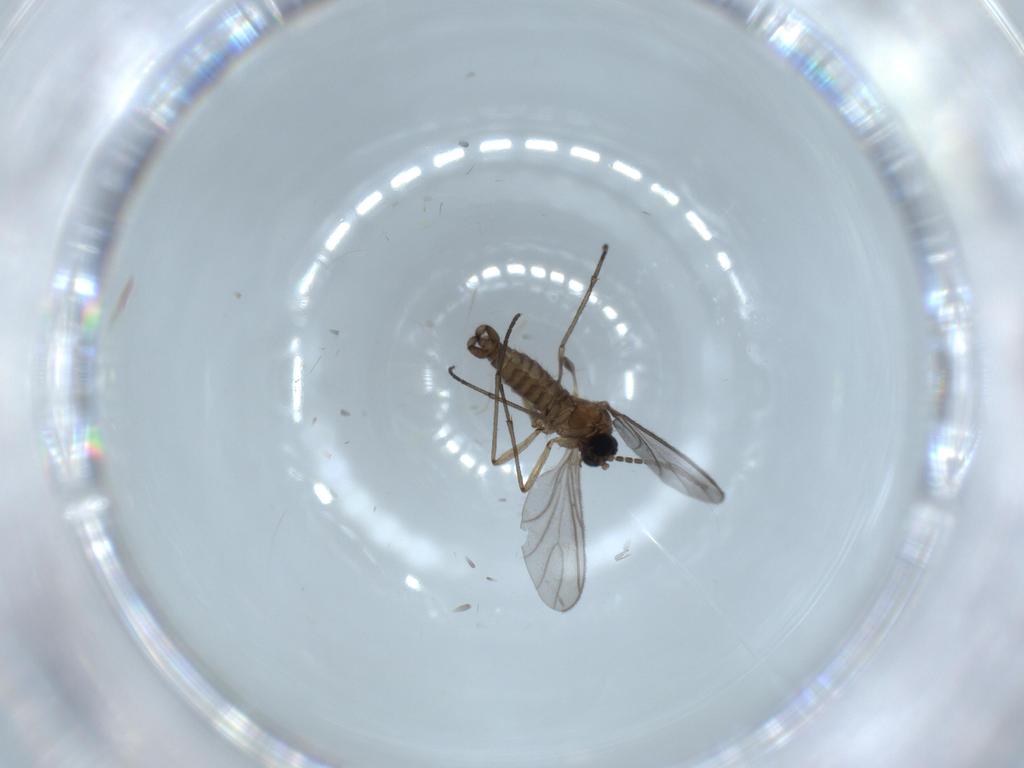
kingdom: Animalia
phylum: Arthropoda
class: Insecta
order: Diptera
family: Sciaridae
